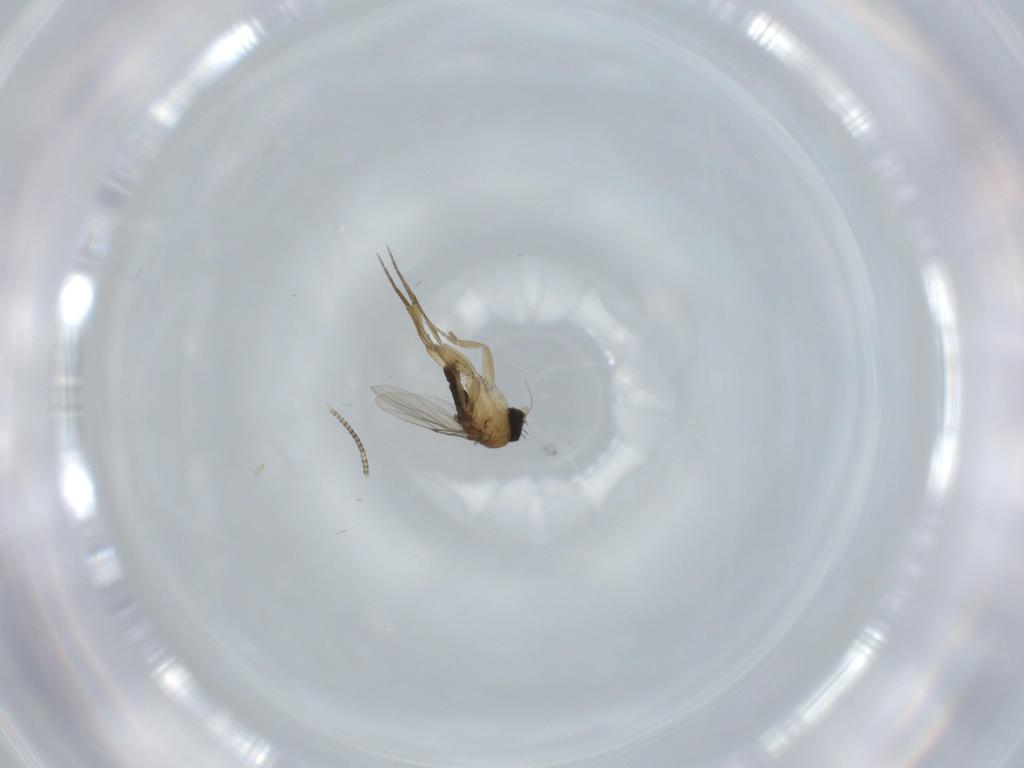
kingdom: Animalia
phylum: Arthropoda
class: Insecta
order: Diptera
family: Phoridae
